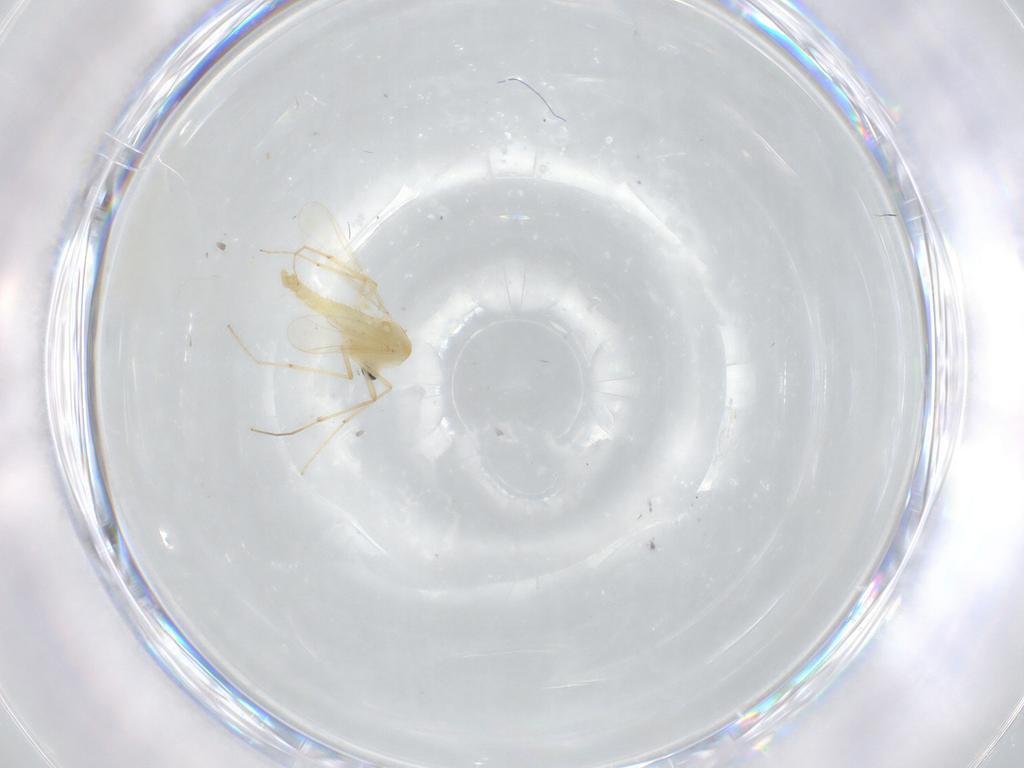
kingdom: Animalia
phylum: Arthropoda
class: Insecta
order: Diptera
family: Chironomidae
